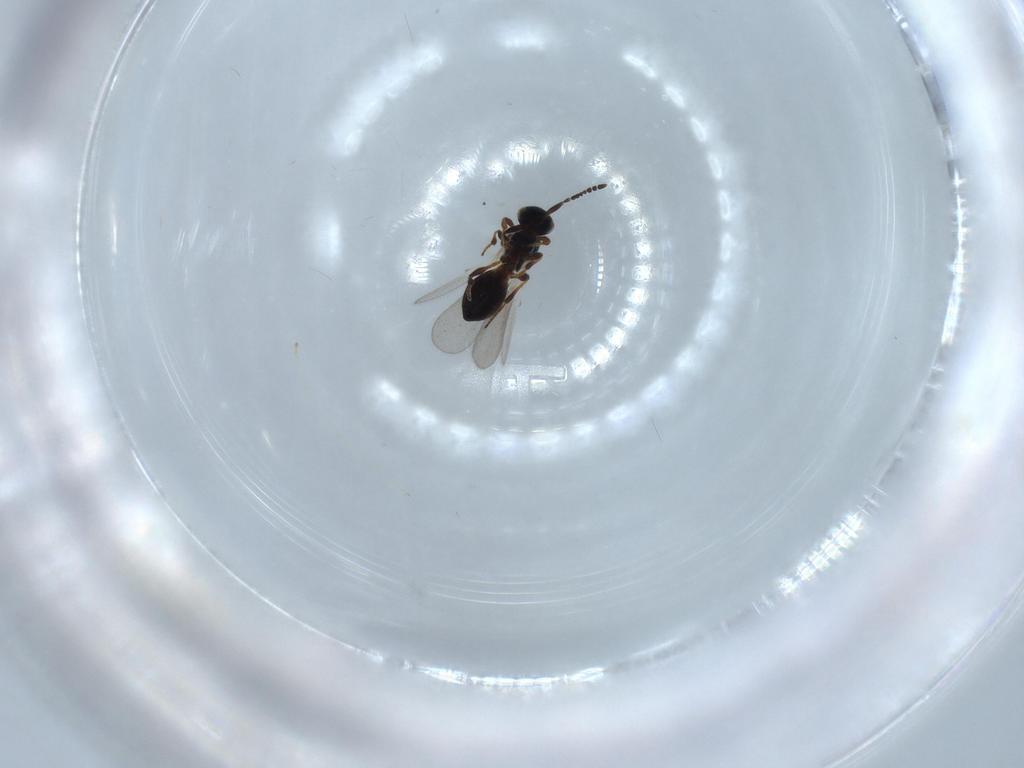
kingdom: Animalia
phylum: Arthropoda
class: Insecta
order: Hymenoptera
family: Platygastridae
